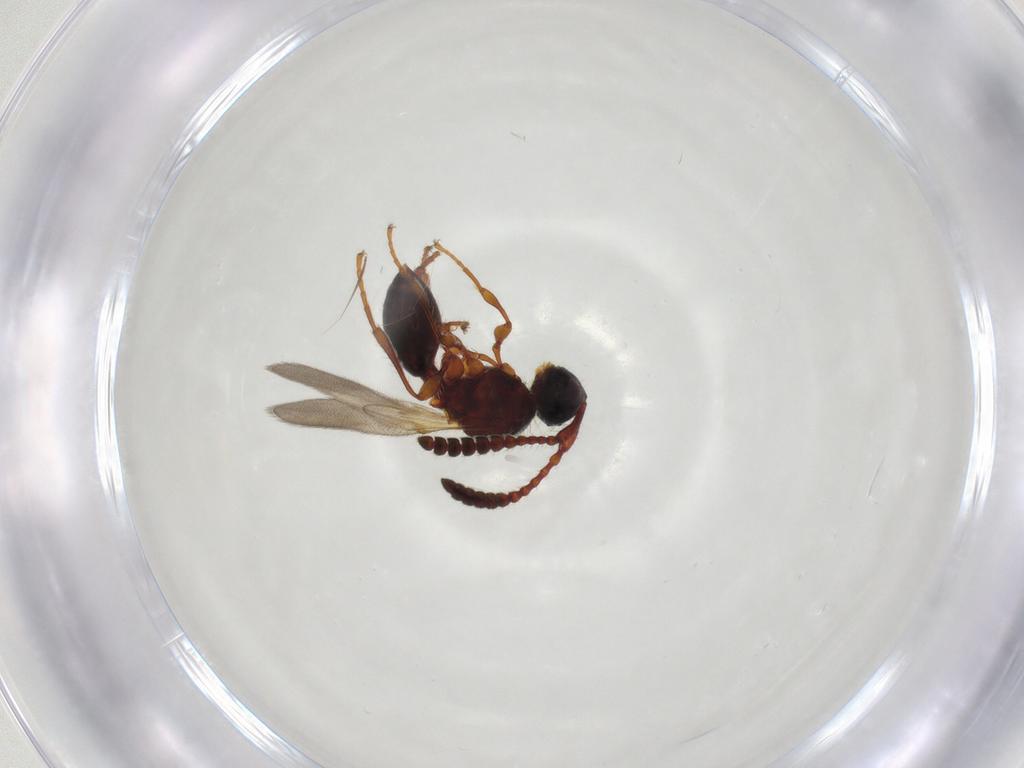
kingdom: Animalia
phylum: Arthropoda
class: Insecta
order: Hymenoptera
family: Diapriidae
